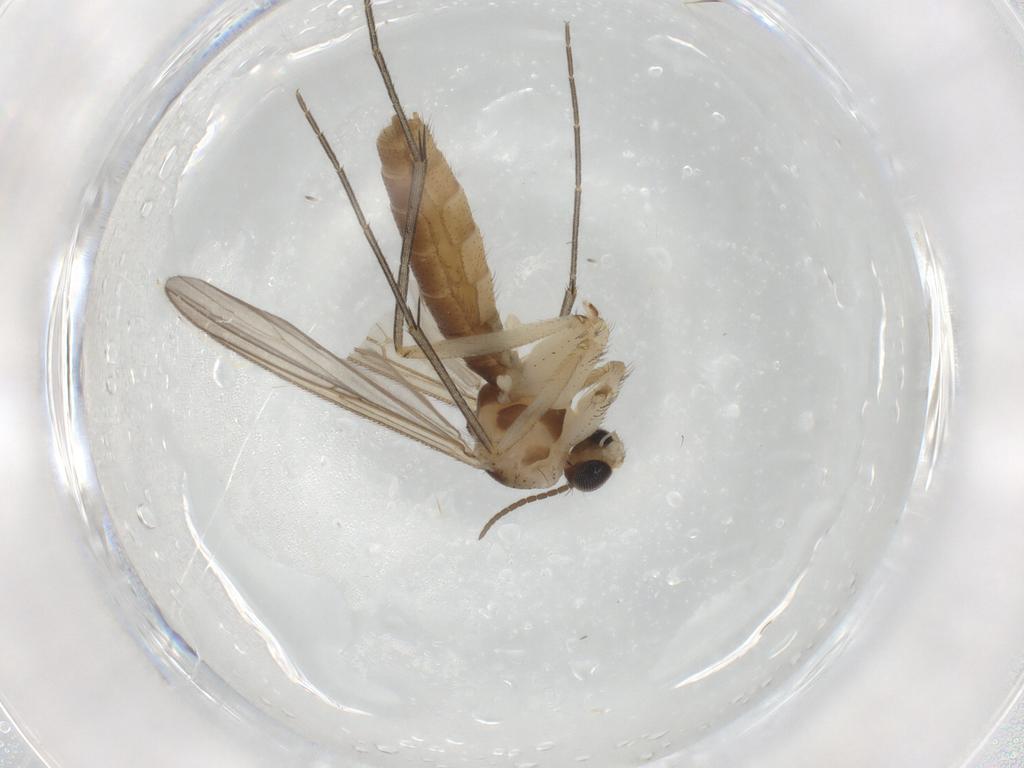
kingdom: Animalia
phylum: Arthropoda
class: Insecta
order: Diptera
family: Mycetophilidae
